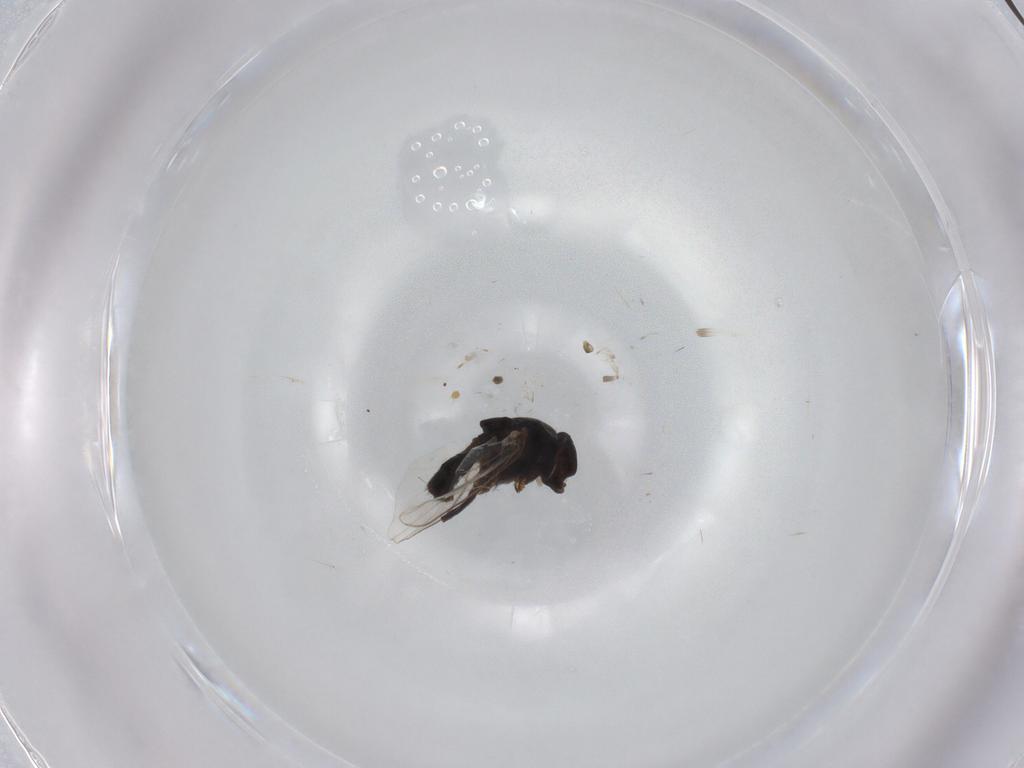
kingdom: Animalia
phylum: Arthropoda
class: Insecta
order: Diptera
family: Milichiidae
